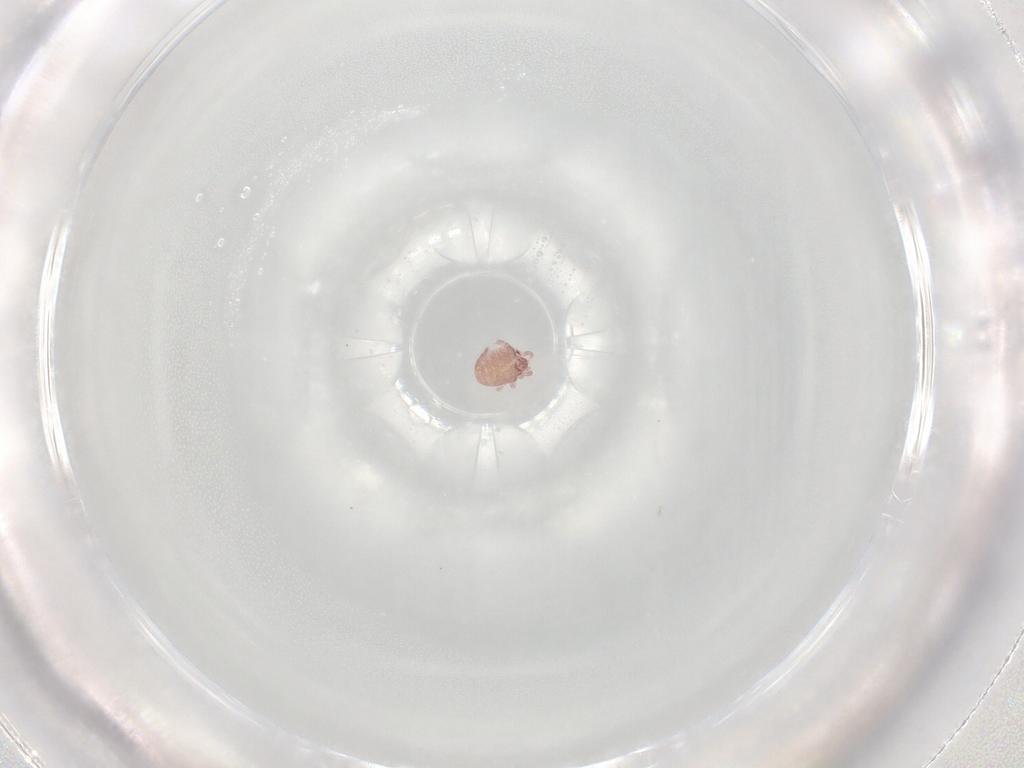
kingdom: Animalia
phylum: Arthropoda
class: Arachnida
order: Sarcoptiformes
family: Alycidae
